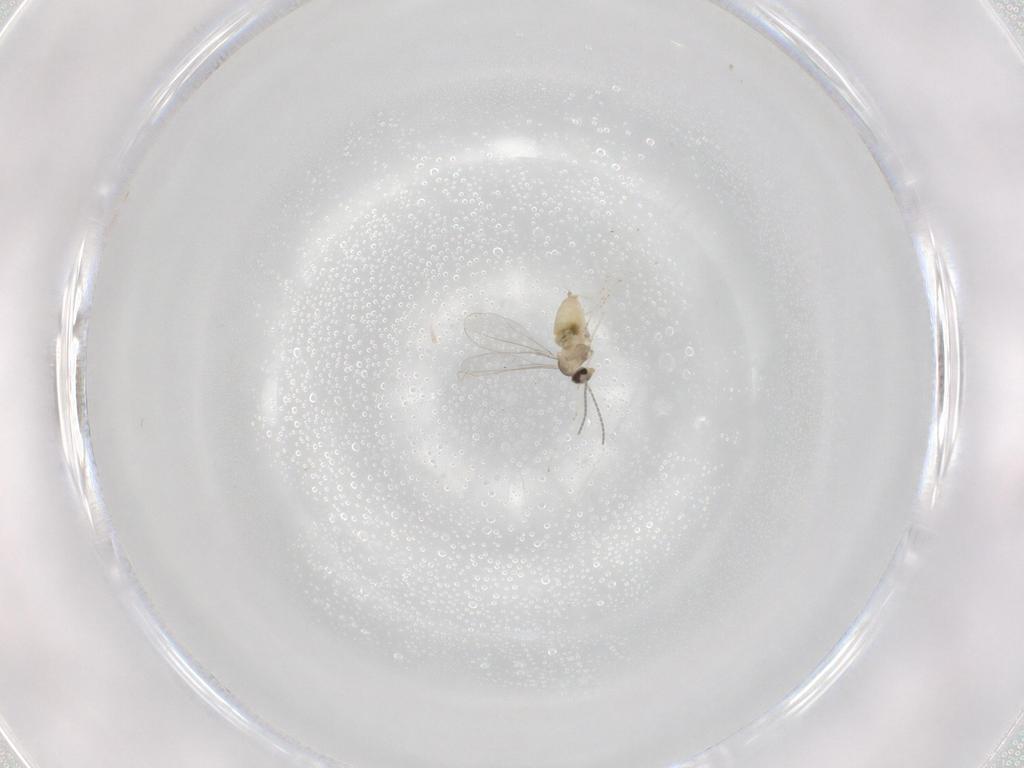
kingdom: Animalia
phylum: Arthropoda
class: Insecta
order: Diptera
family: Cecidomyiidae
